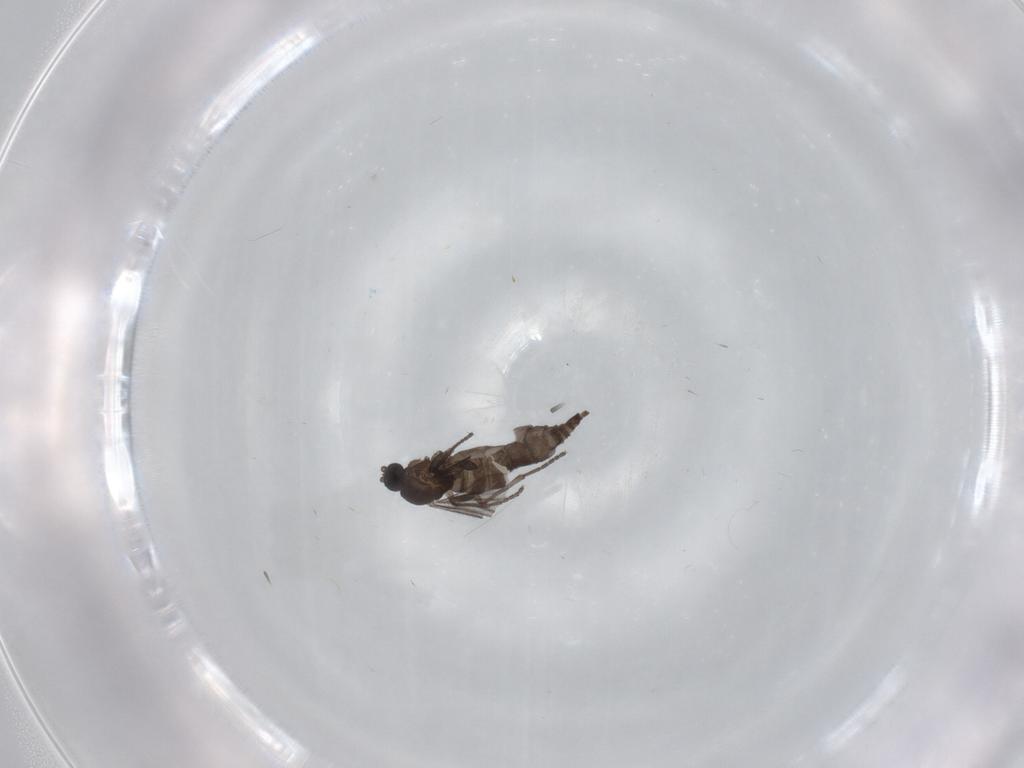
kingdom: Animalia
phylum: Arthropoda
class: Insecta
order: Diptera
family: Sciaridae
